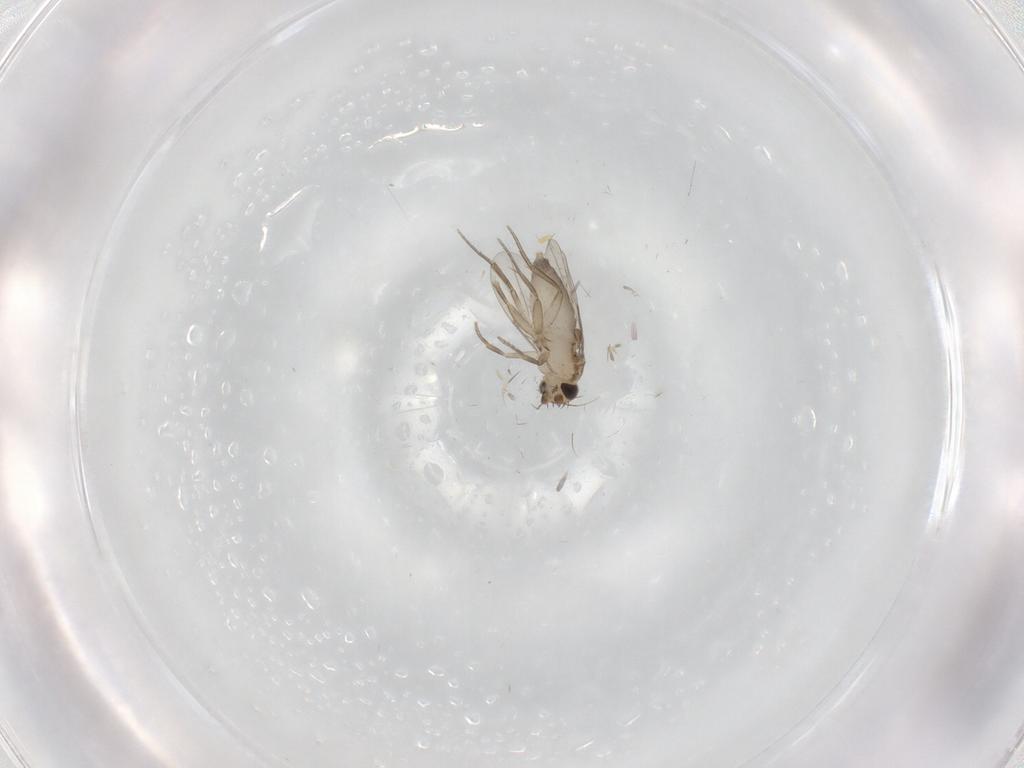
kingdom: Animalia
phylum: Arthropoda
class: Insecta
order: Diptera
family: Phoridae
